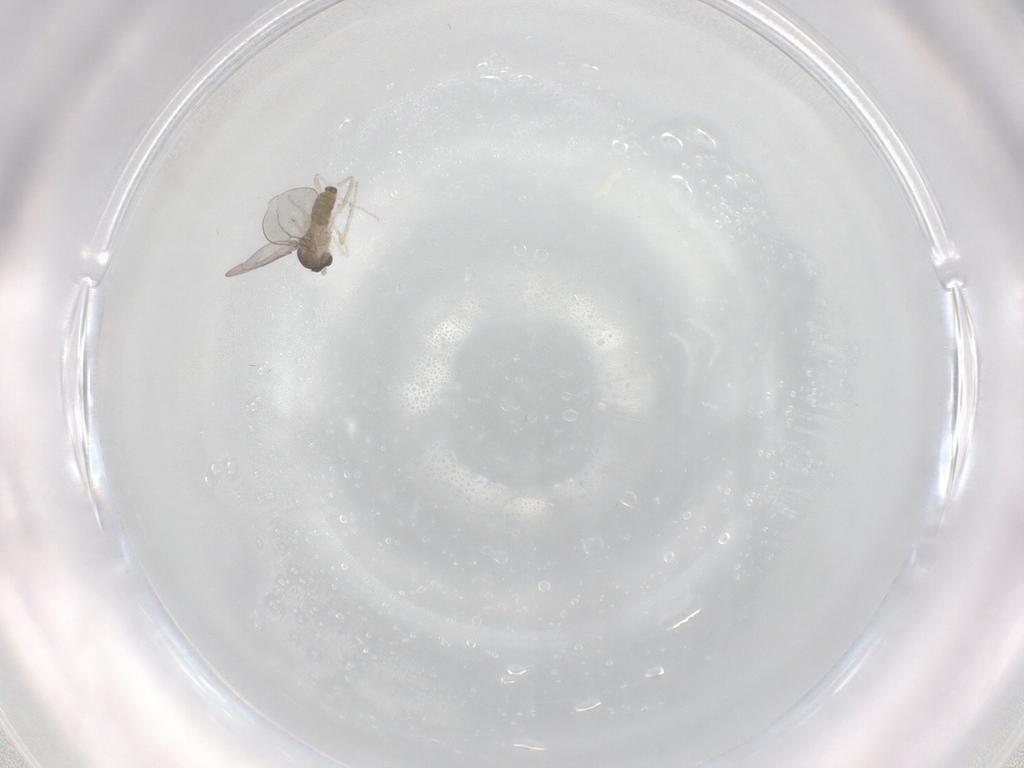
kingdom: Animalia
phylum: Arthropoda
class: Insecta
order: Diptera
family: Cecidomyiidae
